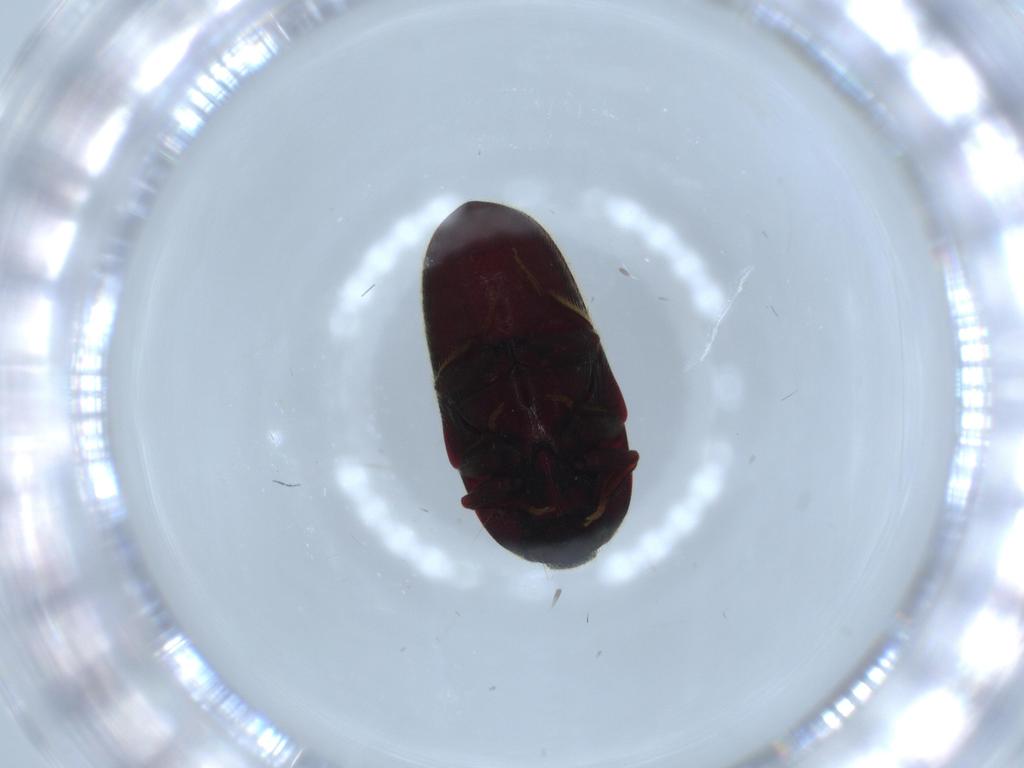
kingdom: Animalia
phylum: Arthropoda
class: Insecta
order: Coleoptera
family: Throscidae
